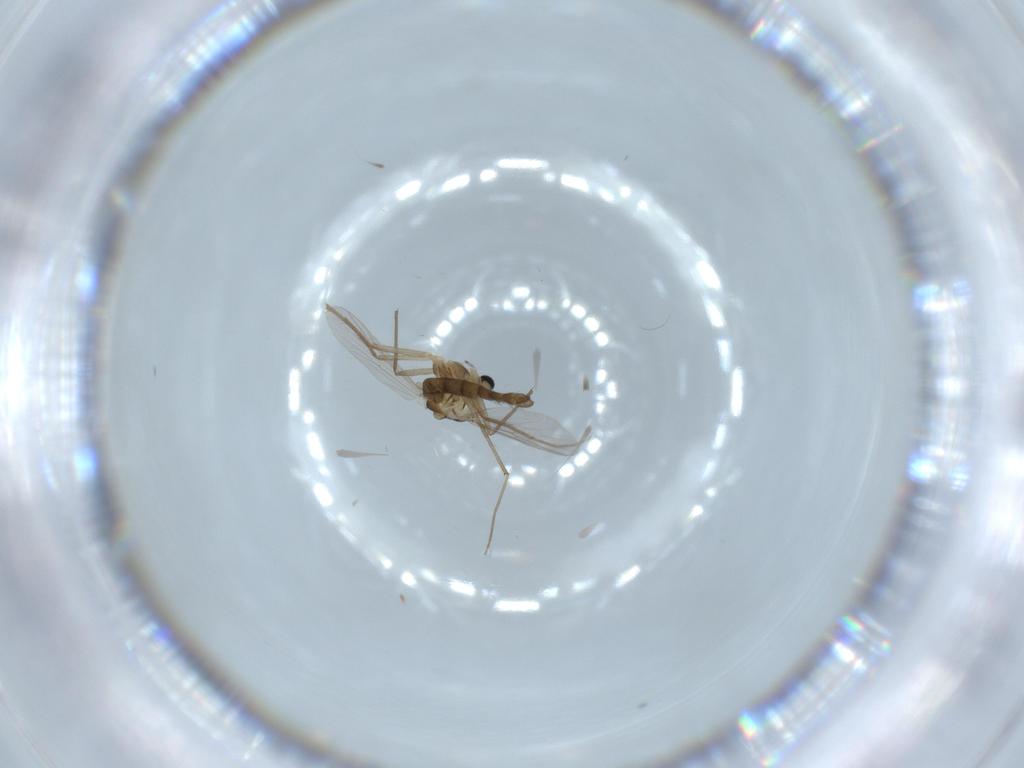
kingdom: Animalia
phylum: Arthropoda
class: Insecta
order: Diptera
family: Chironomidae
